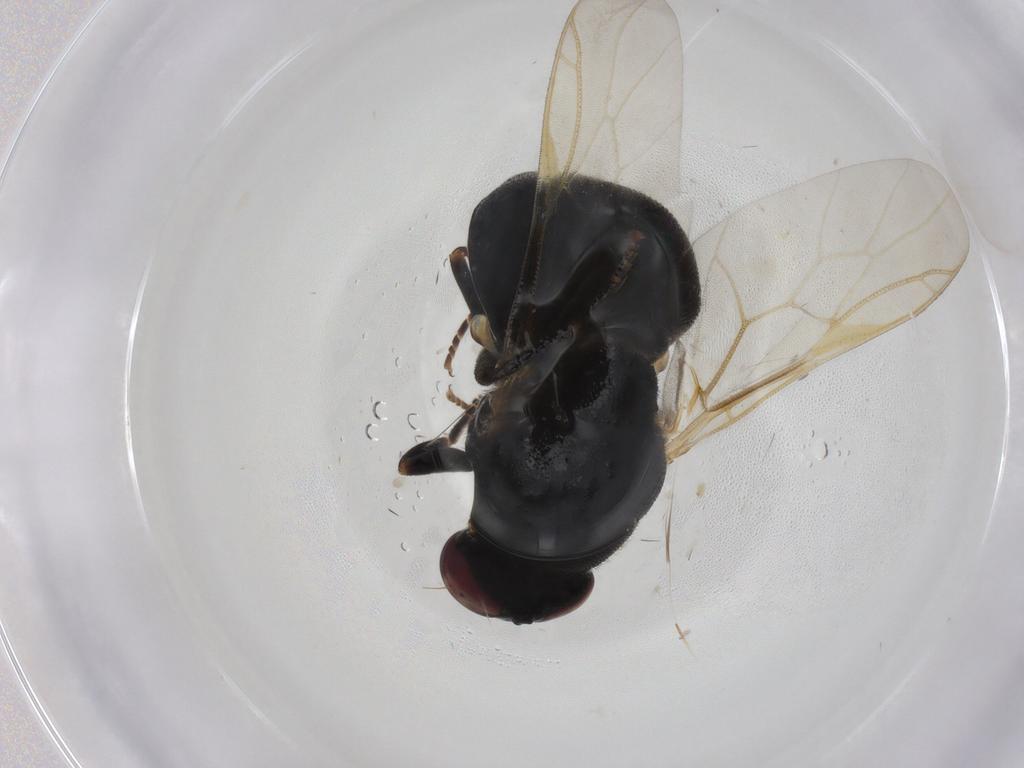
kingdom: Animalia
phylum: Arthropoda
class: Insecta
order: Diptera
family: Stratiomyidae
